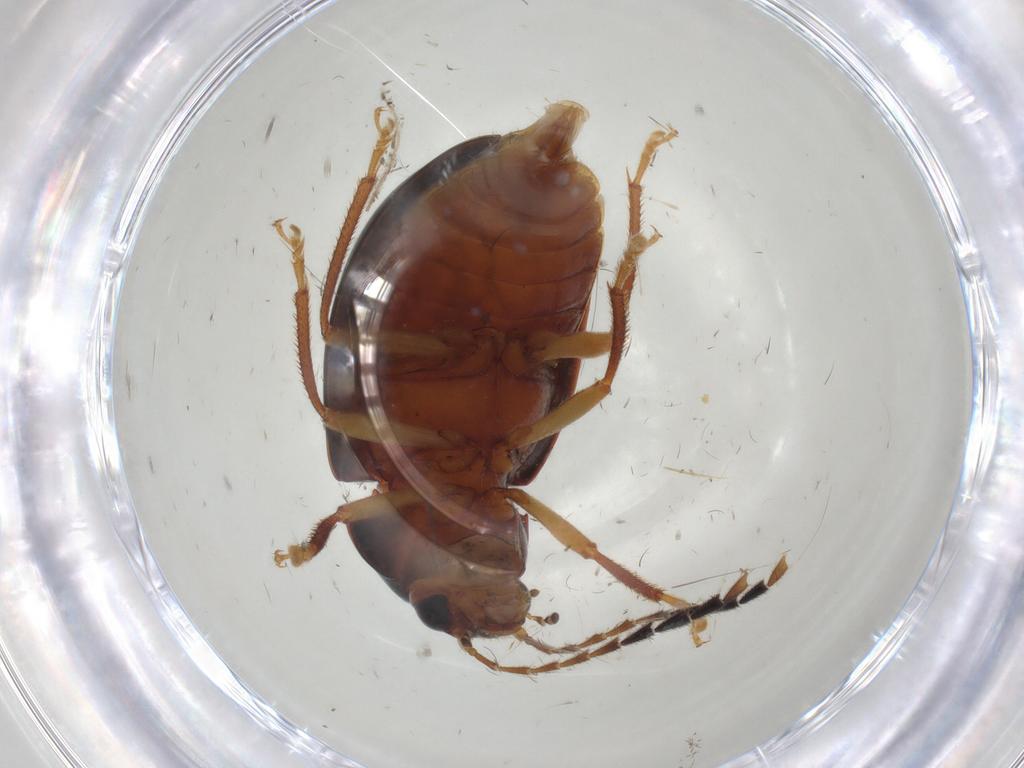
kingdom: Animalia
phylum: Arthropoda
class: Insecta
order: Coleoptera
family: Ptilodactylidae
